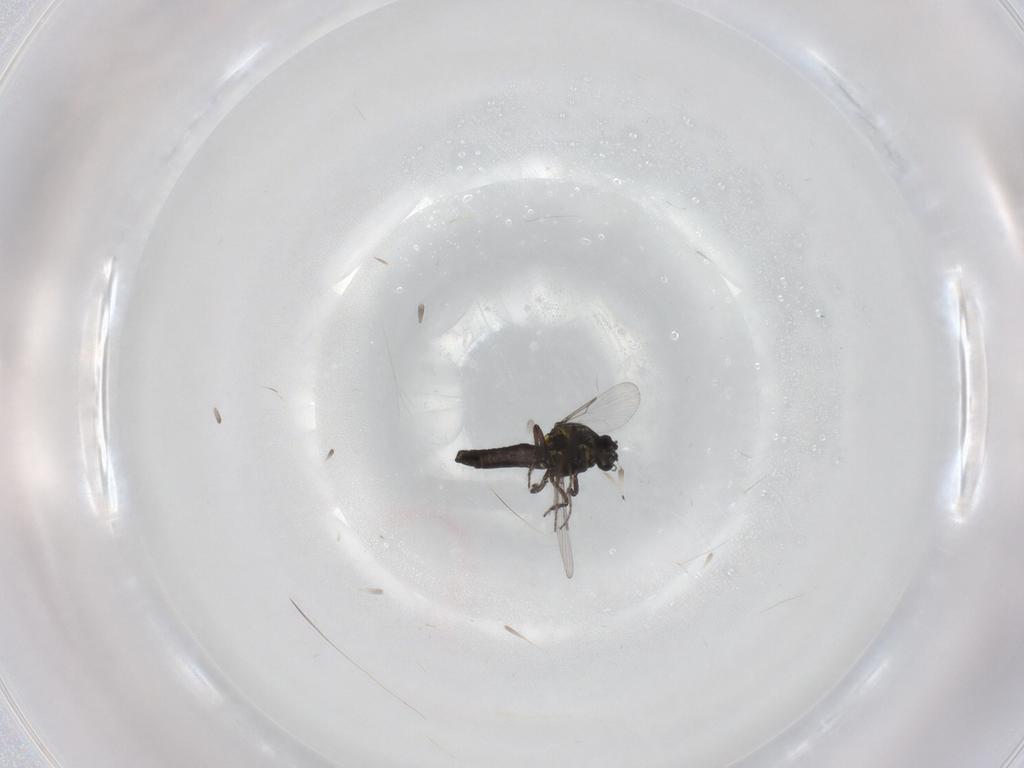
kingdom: Animalia
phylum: Arthropoda
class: Insecta
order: Diptera
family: Ceratopogonidae
